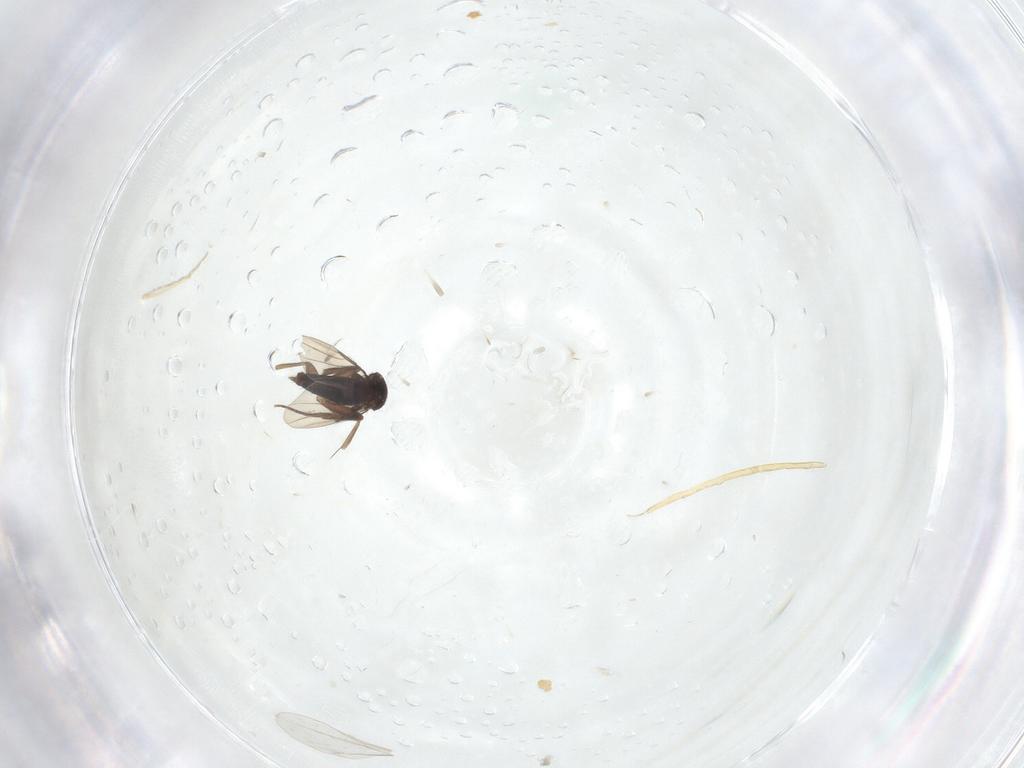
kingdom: Animalia
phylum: Arthropoda
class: Insecta
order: Diptera
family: Phoridae
